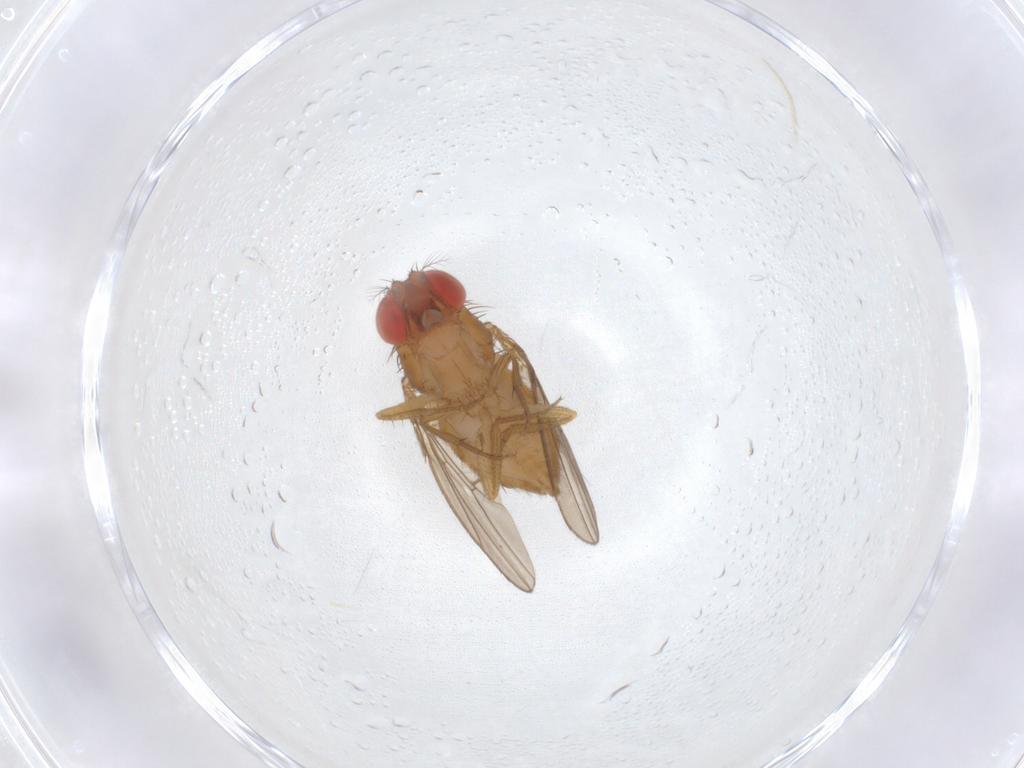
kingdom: Animalia
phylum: Arthropoda
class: Insecta
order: Diptera
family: Drosophilidae
